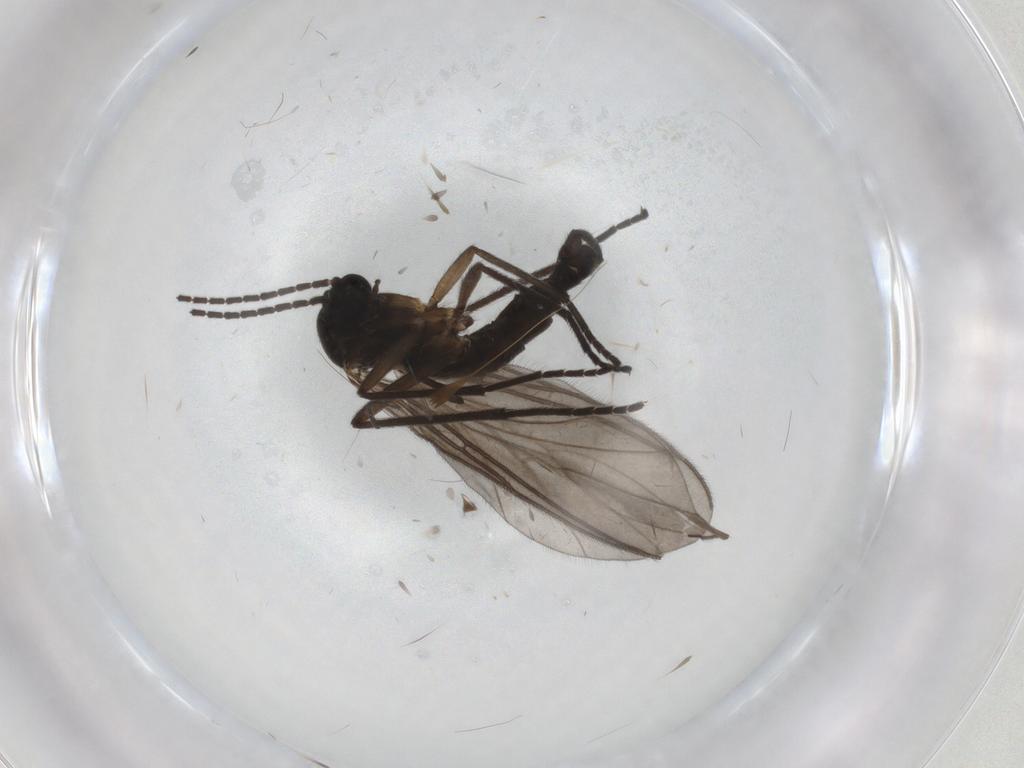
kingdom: Animalia
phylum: Arthropoda
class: Insecta
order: Diptera
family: Sciaridae
